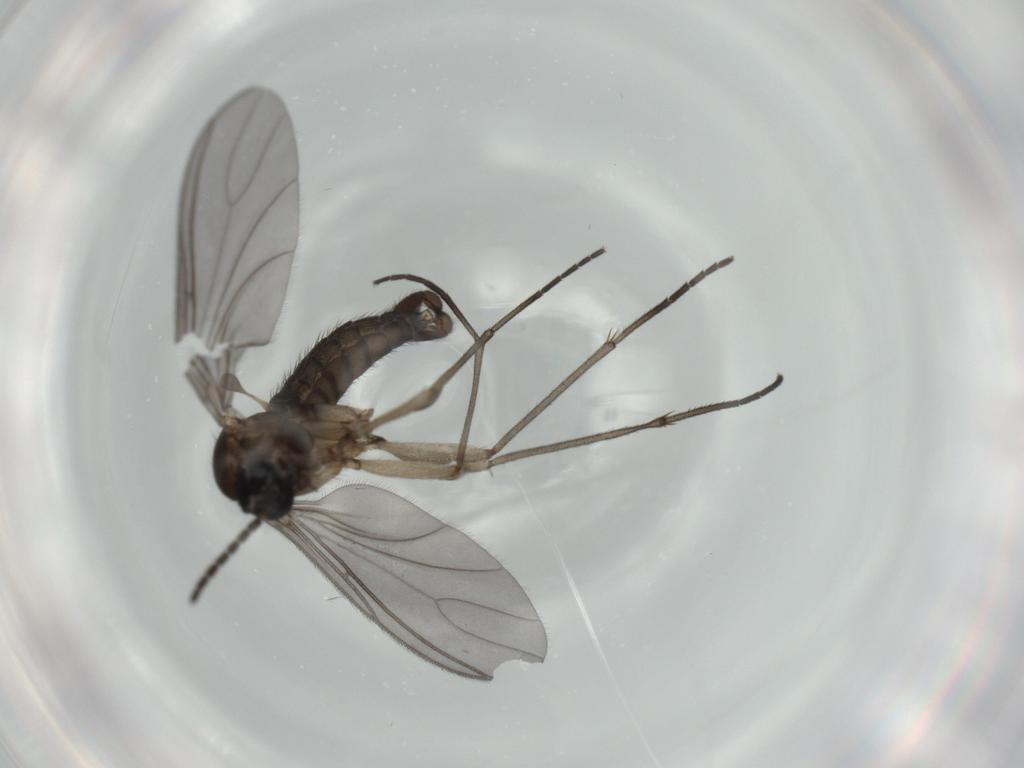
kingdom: Animalia
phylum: Arthropoda
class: Insecta
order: Diptera
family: Sciaridae
